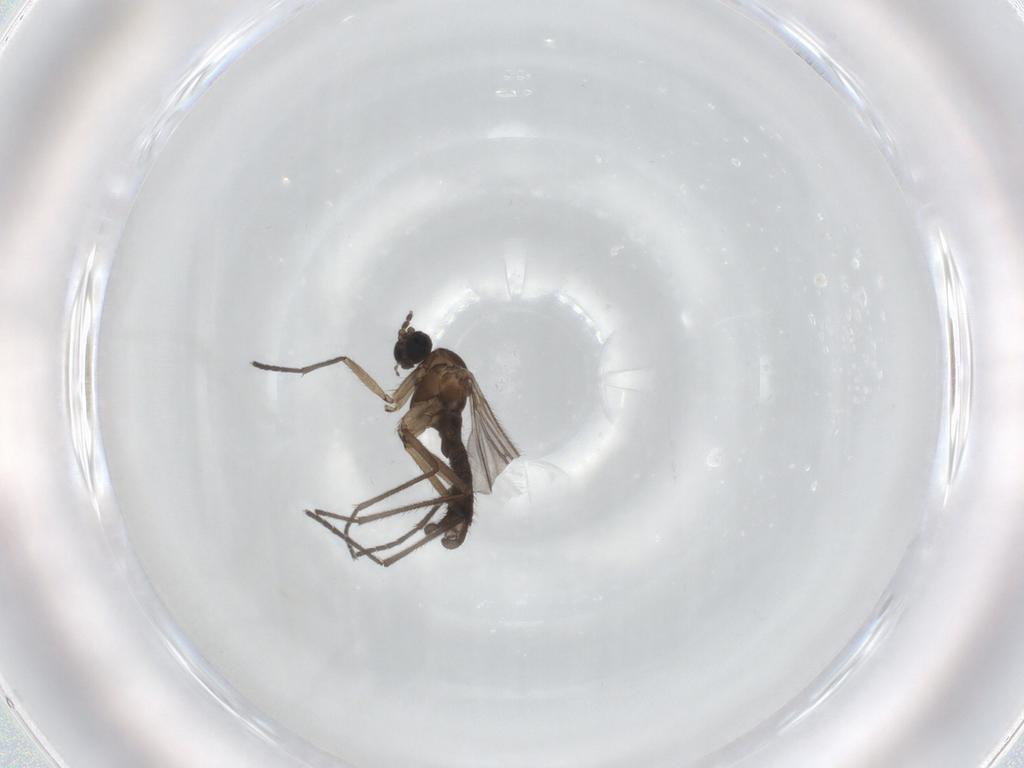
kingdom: Animalia
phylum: Arthropoda
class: Insecta
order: Diptera
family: Sciaridae
